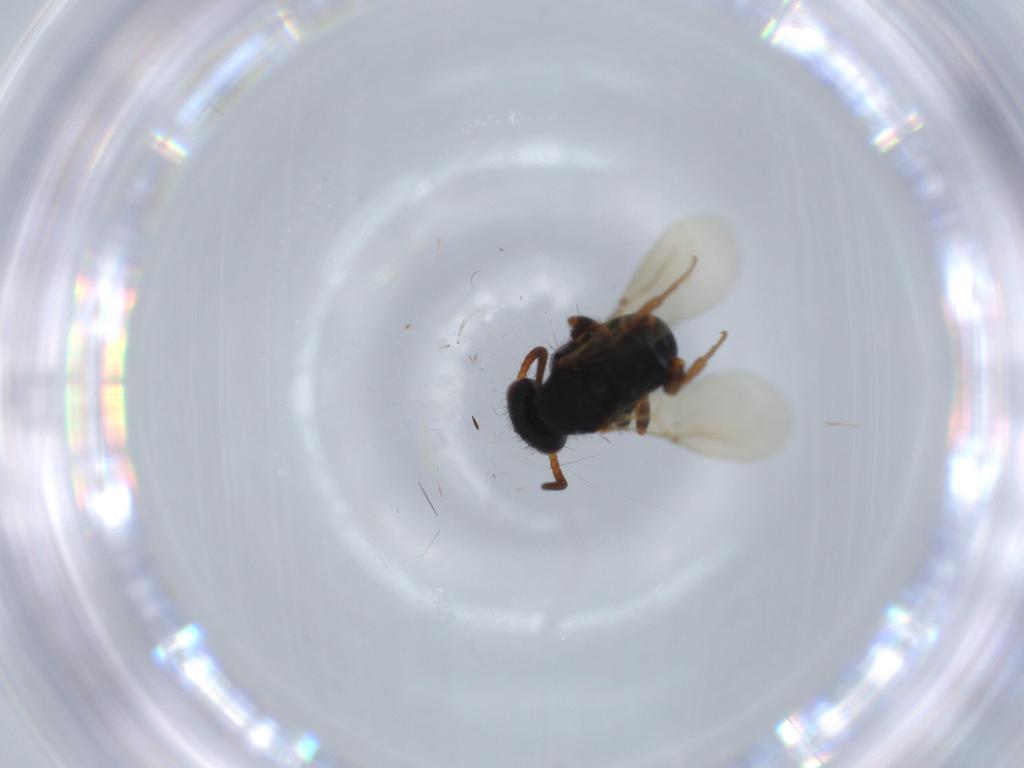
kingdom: Animalia
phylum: Arthropoda
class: Insecta
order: Hymenoptera
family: Bethylidae
